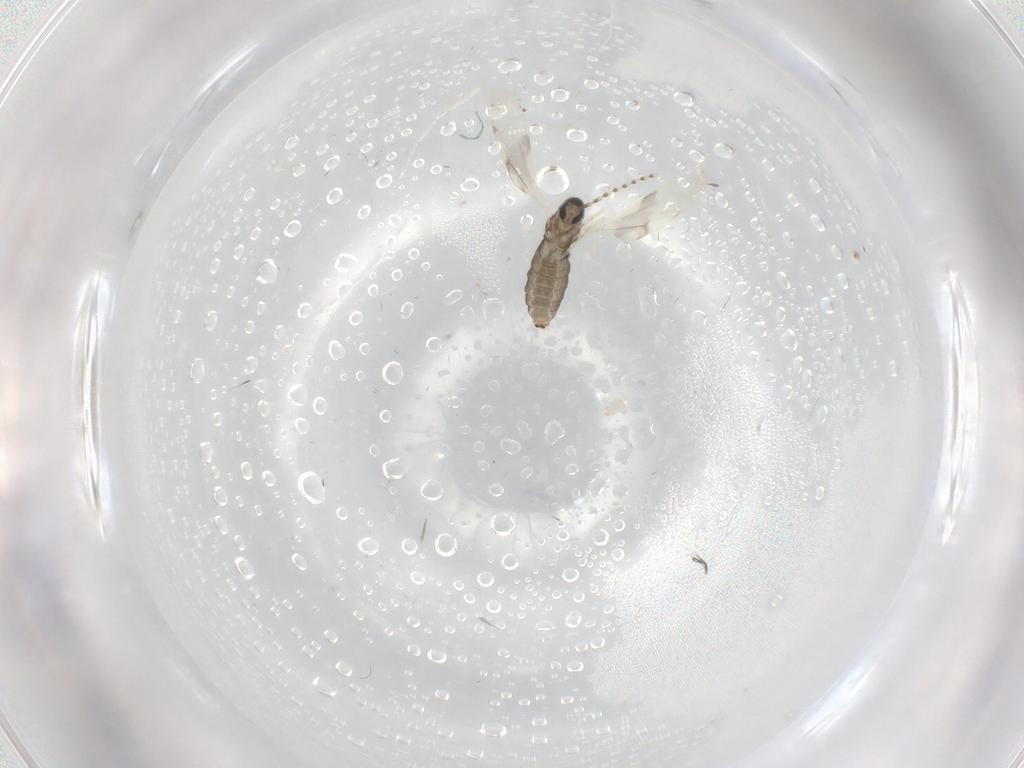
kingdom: Animalia
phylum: Arthropoda
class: Insecta
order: Diptera
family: Phoridae
